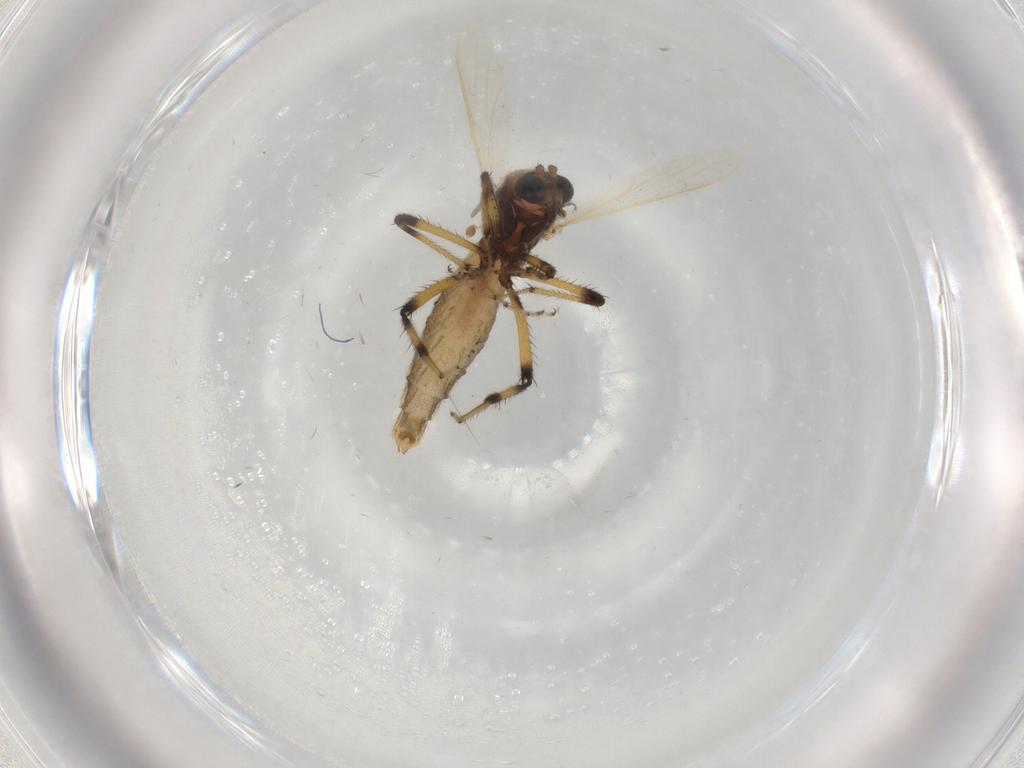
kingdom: Animalia
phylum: Arthropoda
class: Insecta
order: Diptera
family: Ceratopogonidae
